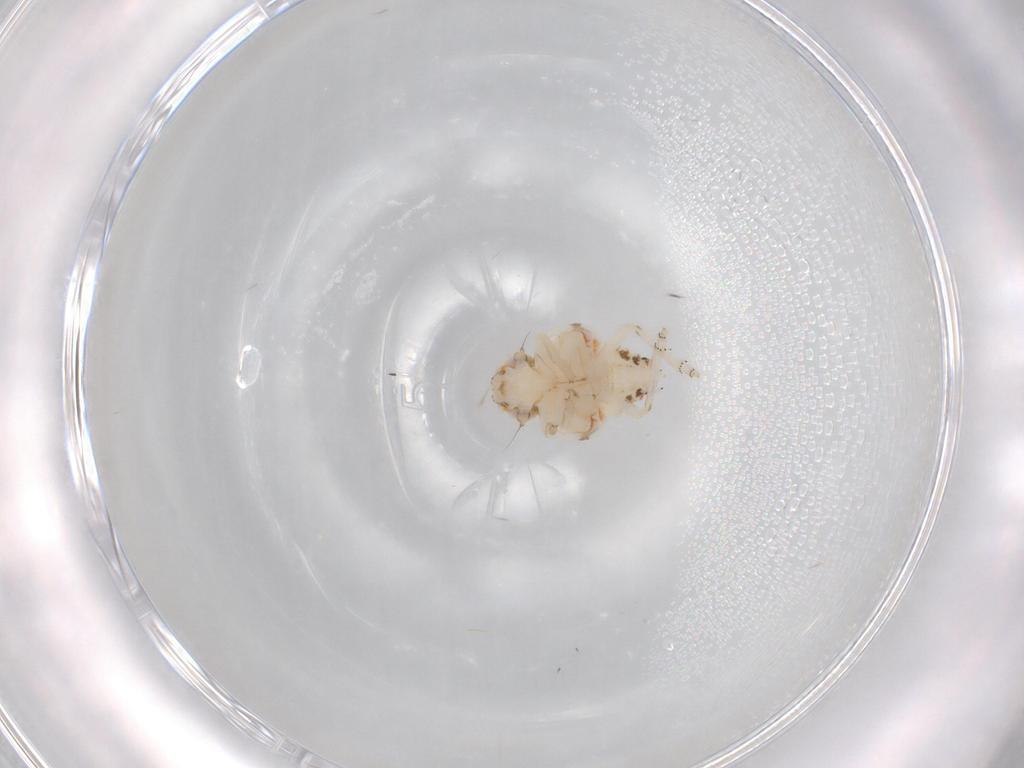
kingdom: Animalia
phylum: Arthropoda
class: Insecta
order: Hemiptera
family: Nogodinidae
